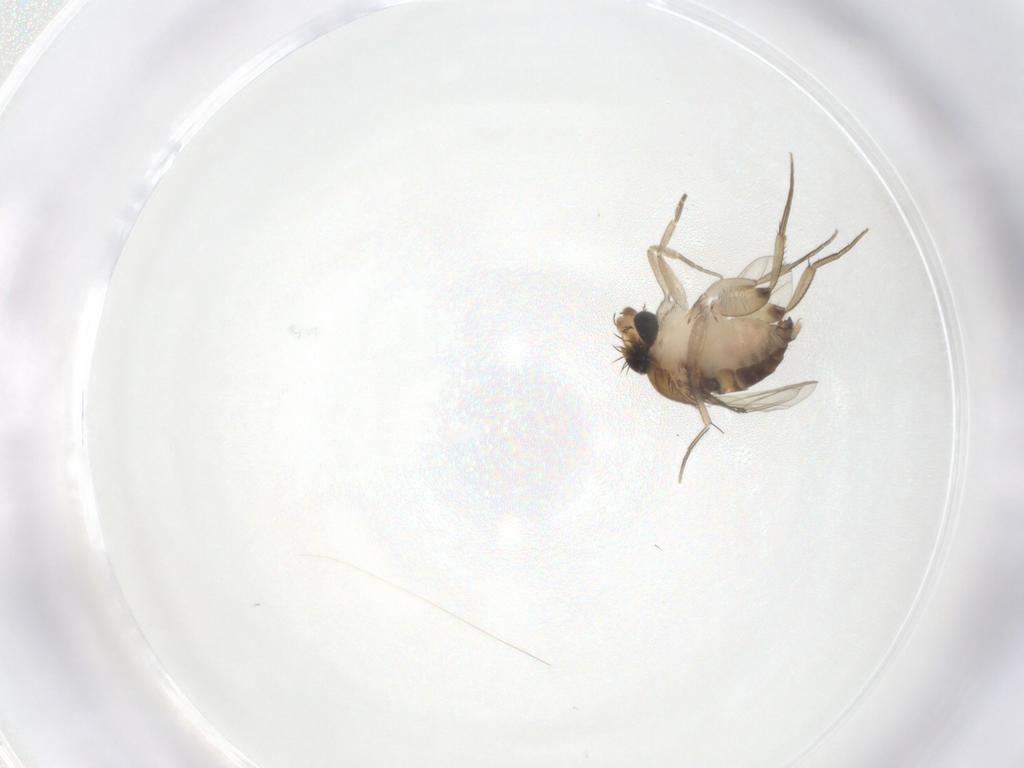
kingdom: Animalia
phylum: Arthropoda
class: Insecta
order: Diptera
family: Phoridae
